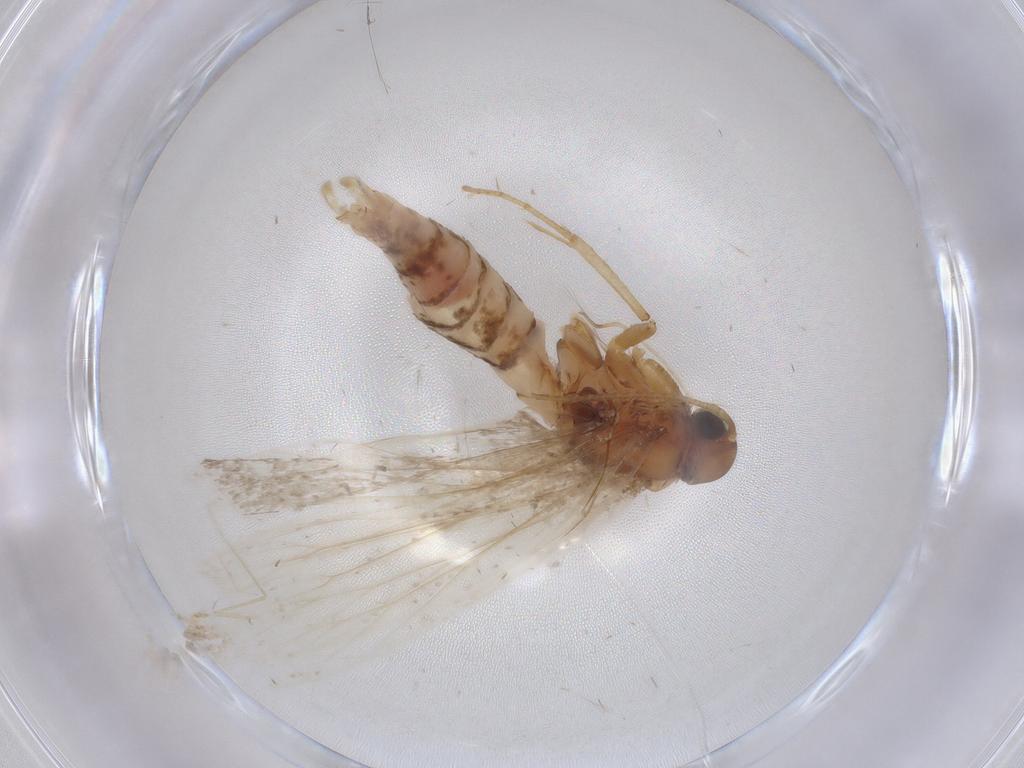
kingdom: Animalia
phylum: Arthropoda
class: Insecta
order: Lepidoptera
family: Gelechiidae
